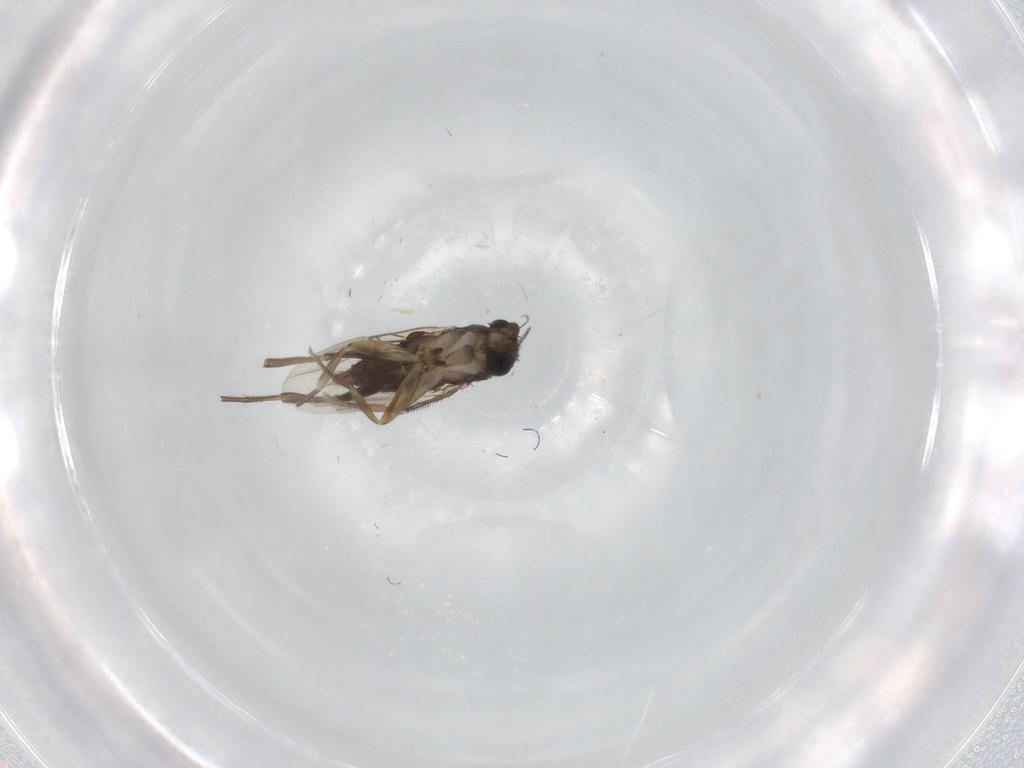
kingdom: Animalia
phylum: Arthropoda
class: Insecta
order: Diptera
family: Phoridae
